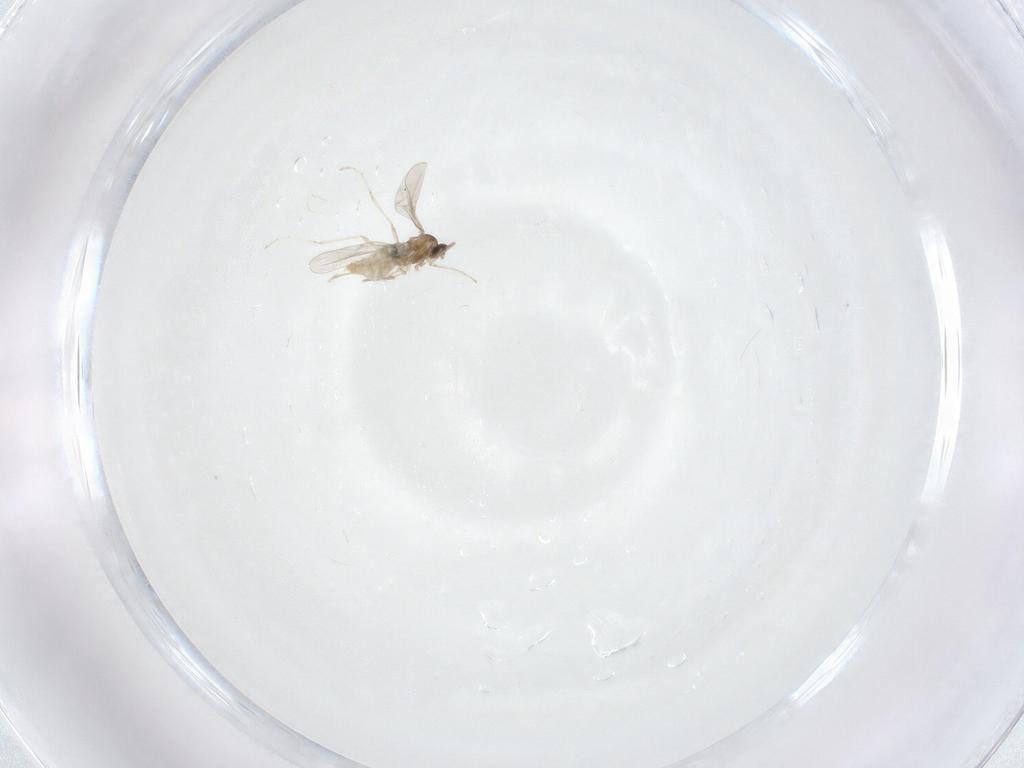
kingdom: Animalia
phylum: Arthropoda
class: Insecta
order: Diptera
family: Cecidomyiidae
